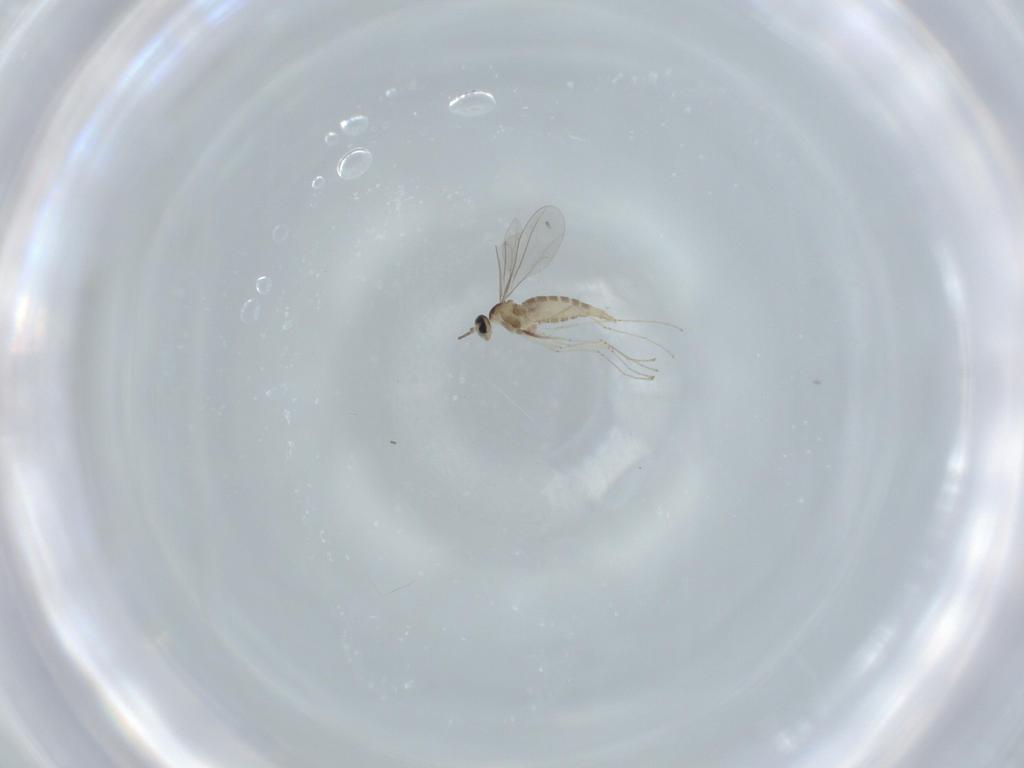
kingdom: Animalia
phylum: Arthropoda
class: Insecta
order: Diptera
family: Cecidomyiidae
